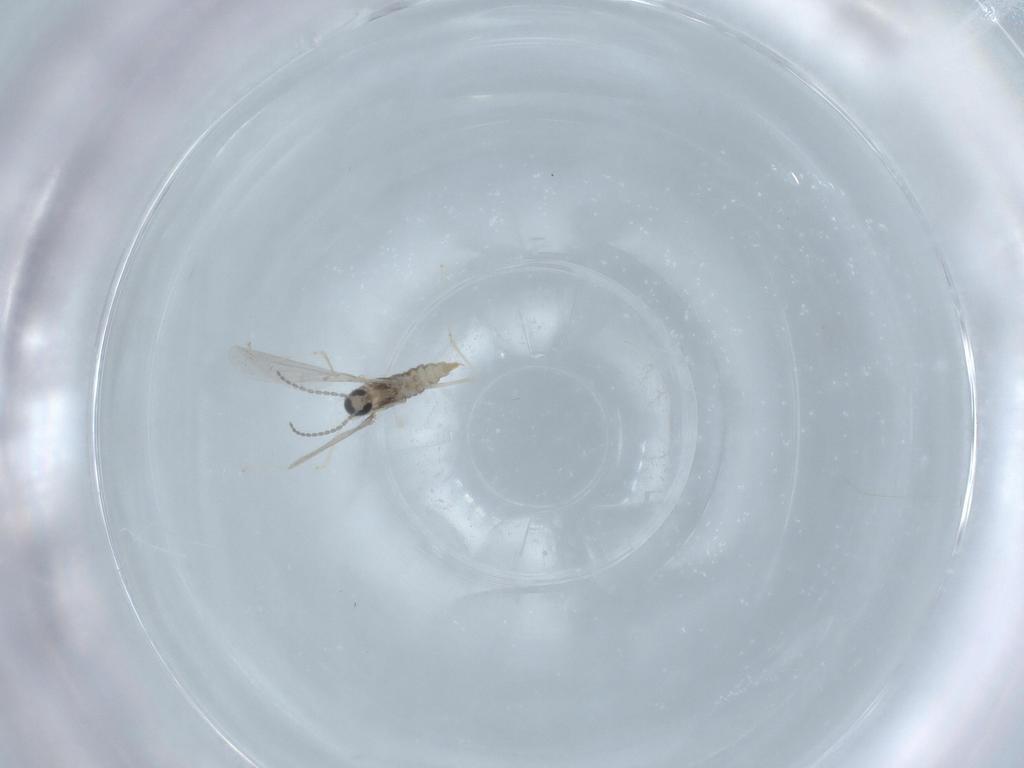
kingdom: Animalia
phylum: Arthropoda
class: Insecta
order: Diptera
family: Cecidomyiidae
